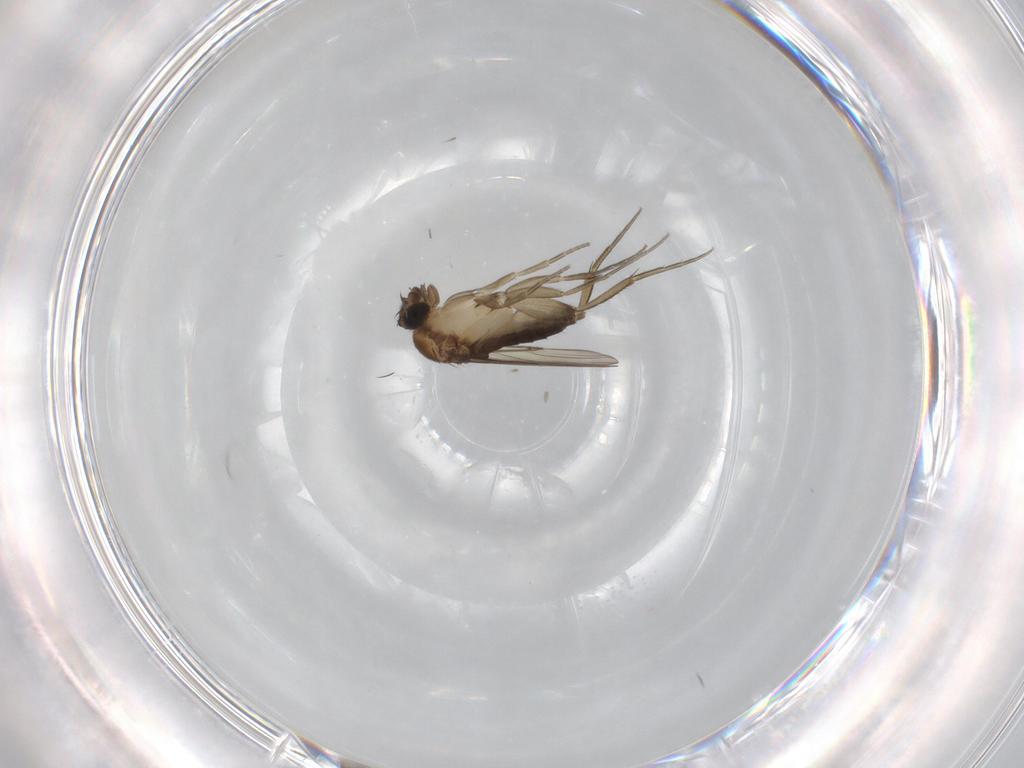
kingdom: Animalia
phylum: Arthropoda
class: Insecta
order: Diptera
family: Phoridae
